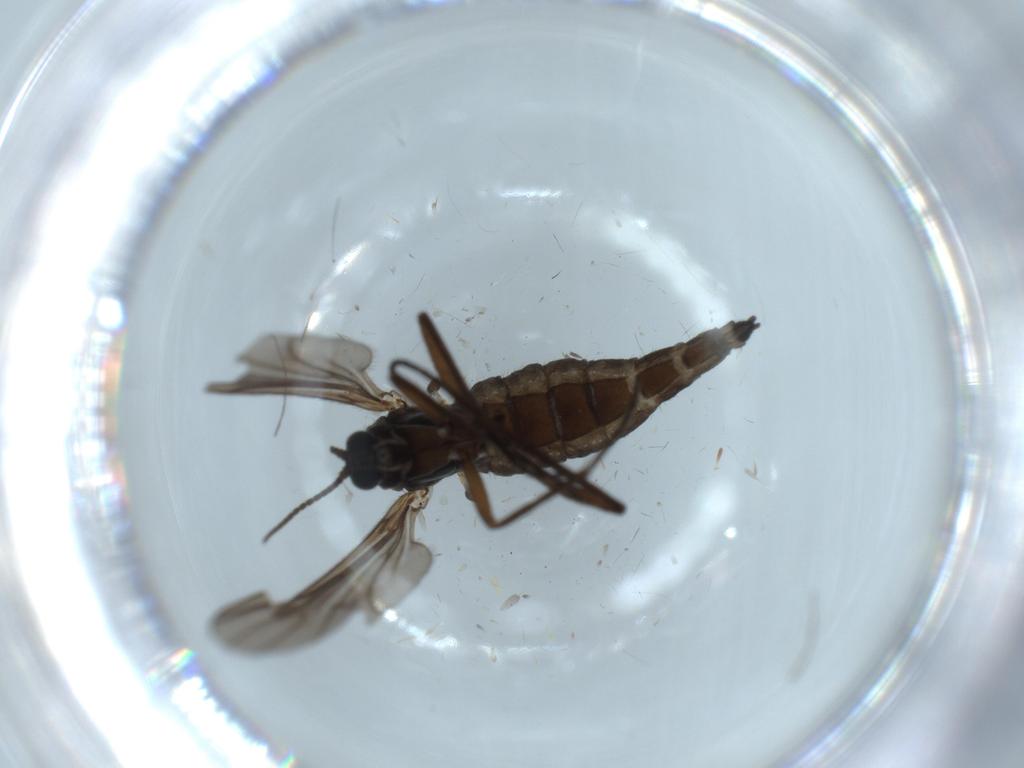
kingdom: Animalia
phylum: Arthropoda
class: Insecta
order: Diptera
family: Sciaridae
